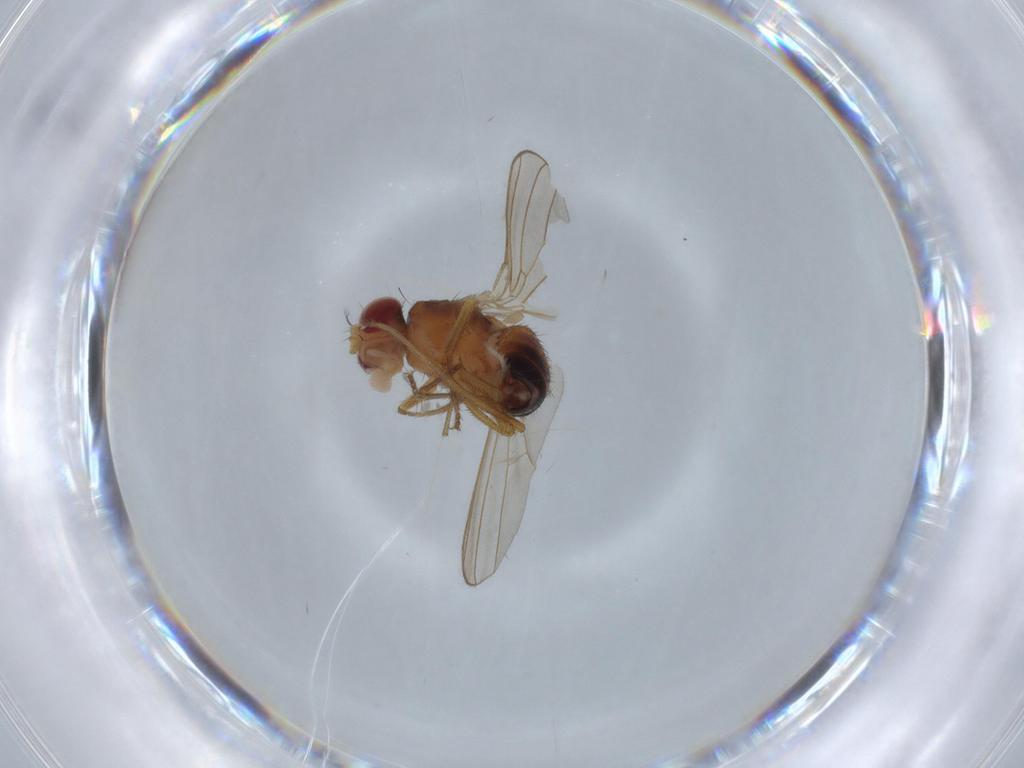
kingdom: Animalia
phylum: Arthropoda
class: Insecta
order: Diptera
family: Drosophilidae
